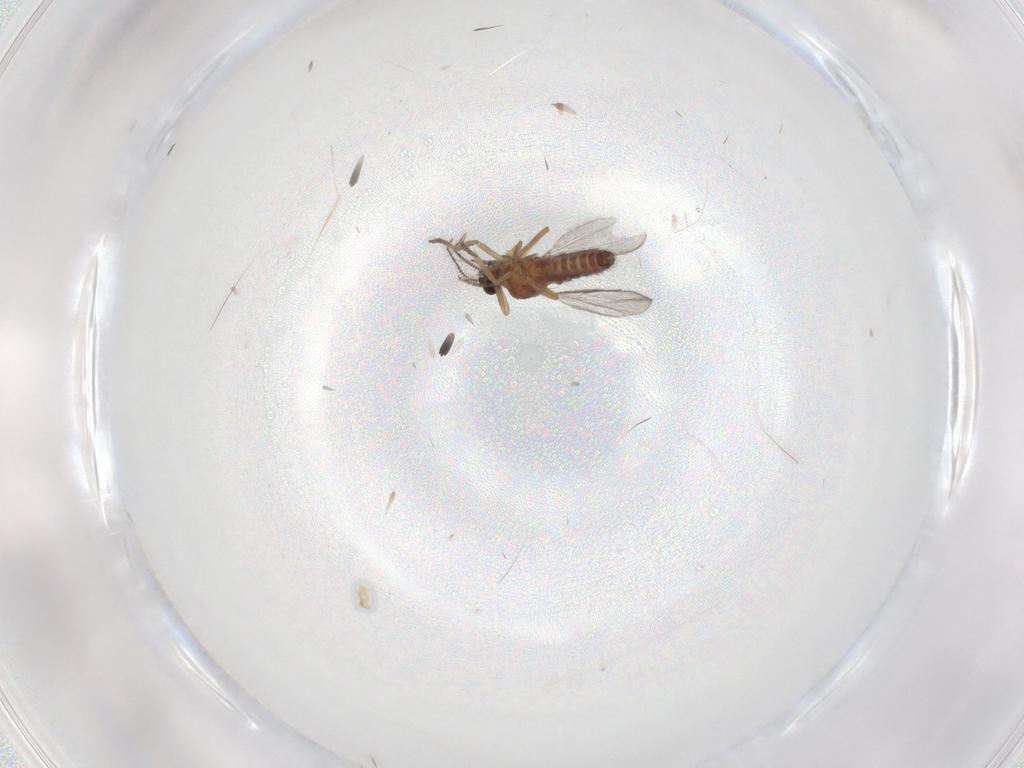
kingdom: Animalia
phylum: Arthropoda
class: Insecta
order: Diptera
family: Ceratopogonidae
